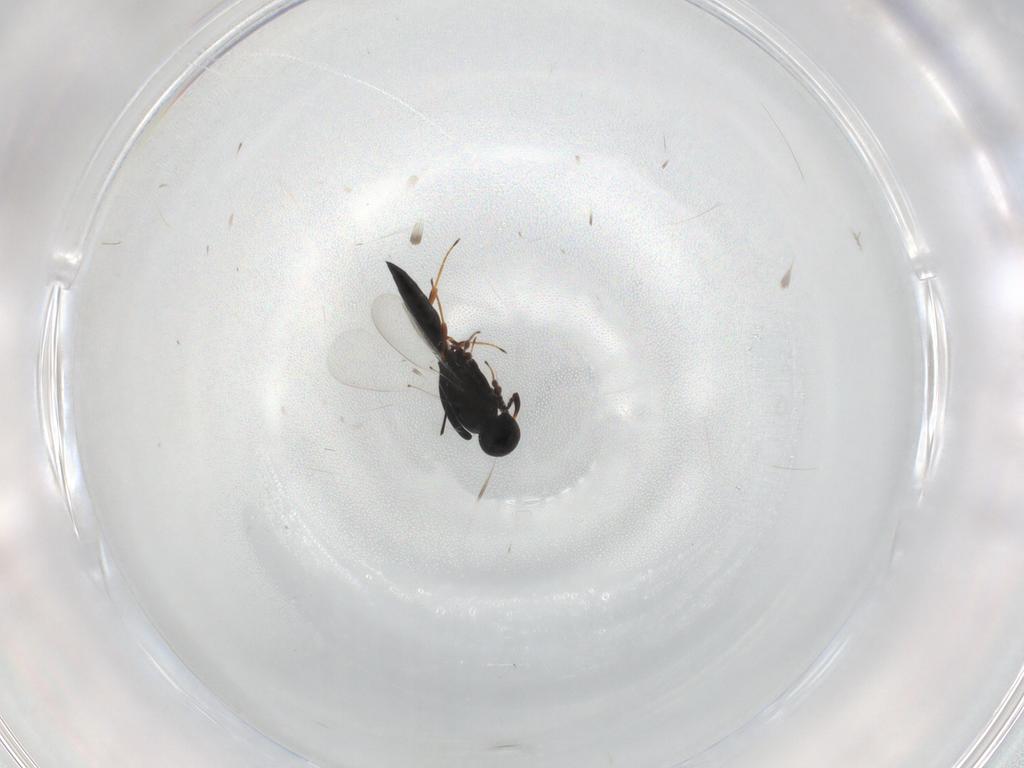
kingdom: Animalia
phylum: Arthropoda
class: Insecta
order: Hymenoptera
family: Platygastridae
